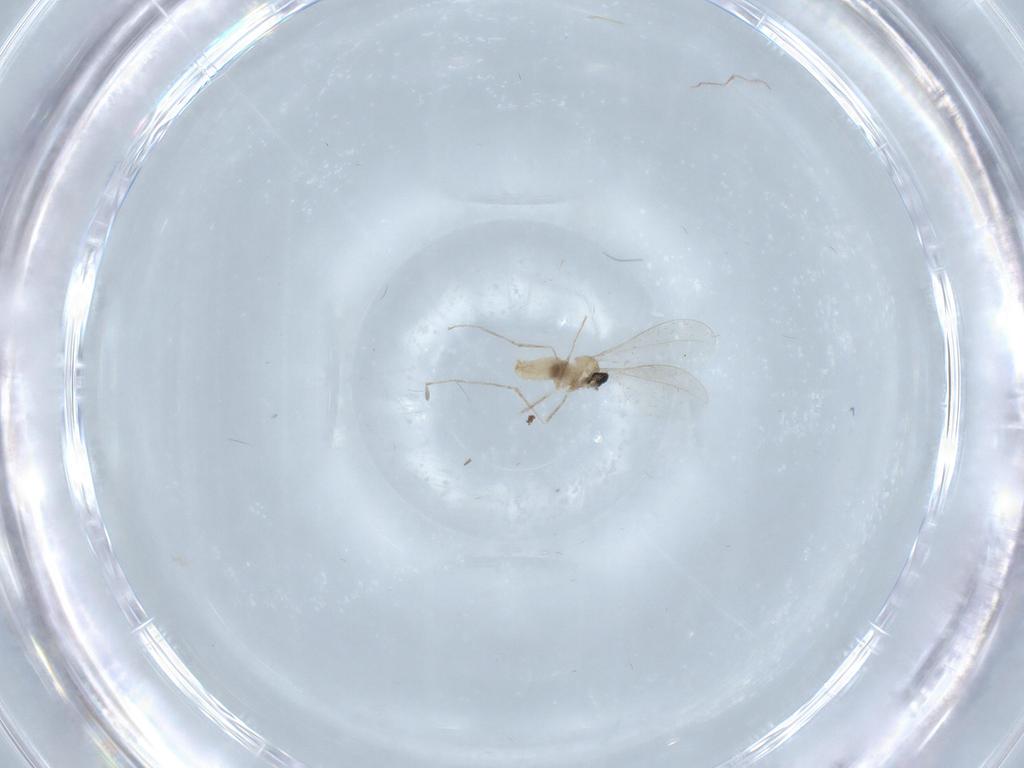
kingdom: Animalia
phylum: Arthropoda
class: Insecta
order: Diptera
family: Cecidomyiidae
